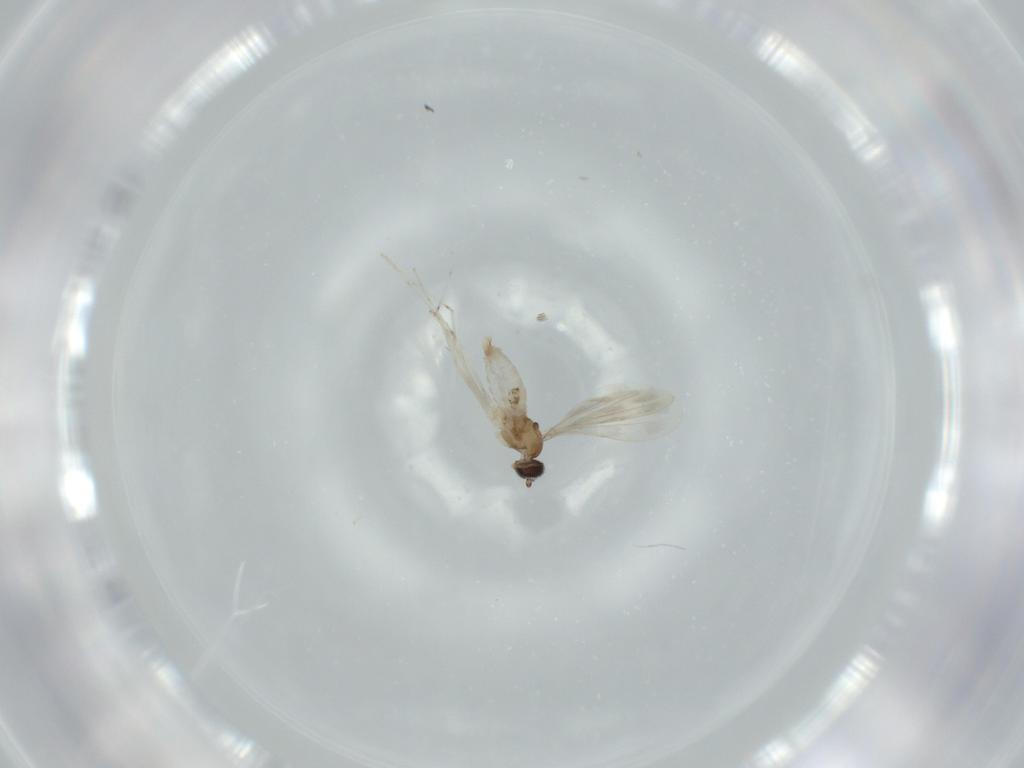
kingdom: Animalia
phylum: Arthropoda
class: Insecta
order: Diptera
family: Cecidomyiidae
